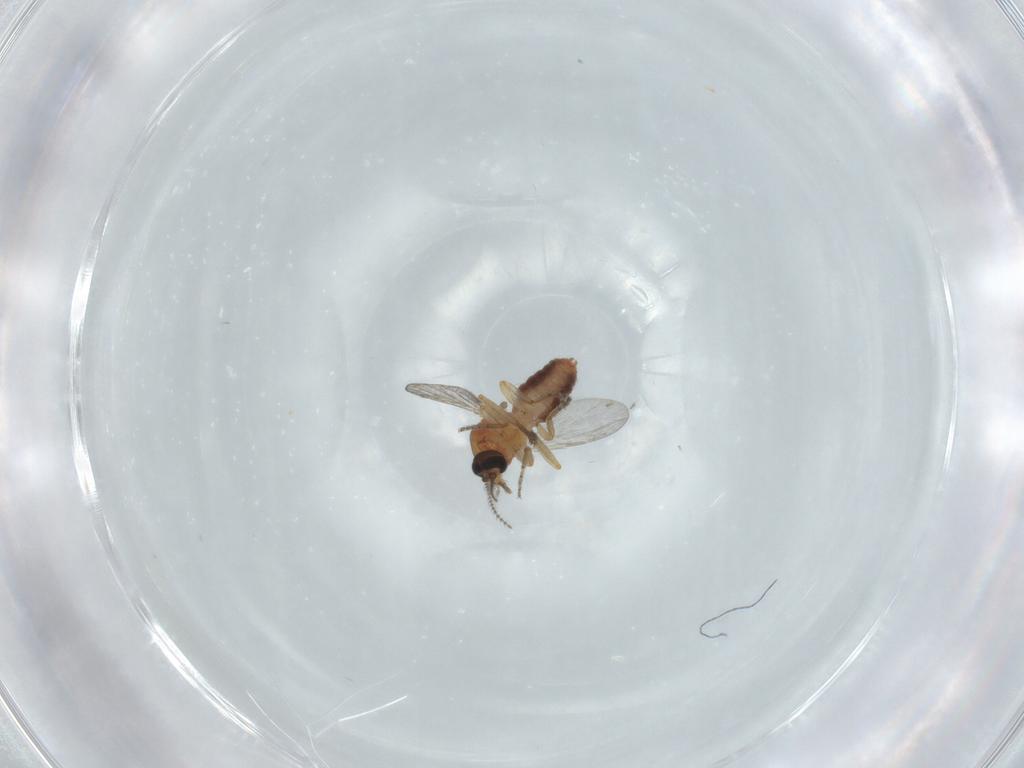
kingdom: Animalia
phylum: Arthropoda
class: Insecta
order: Diptera
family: Ceratopogonidae
